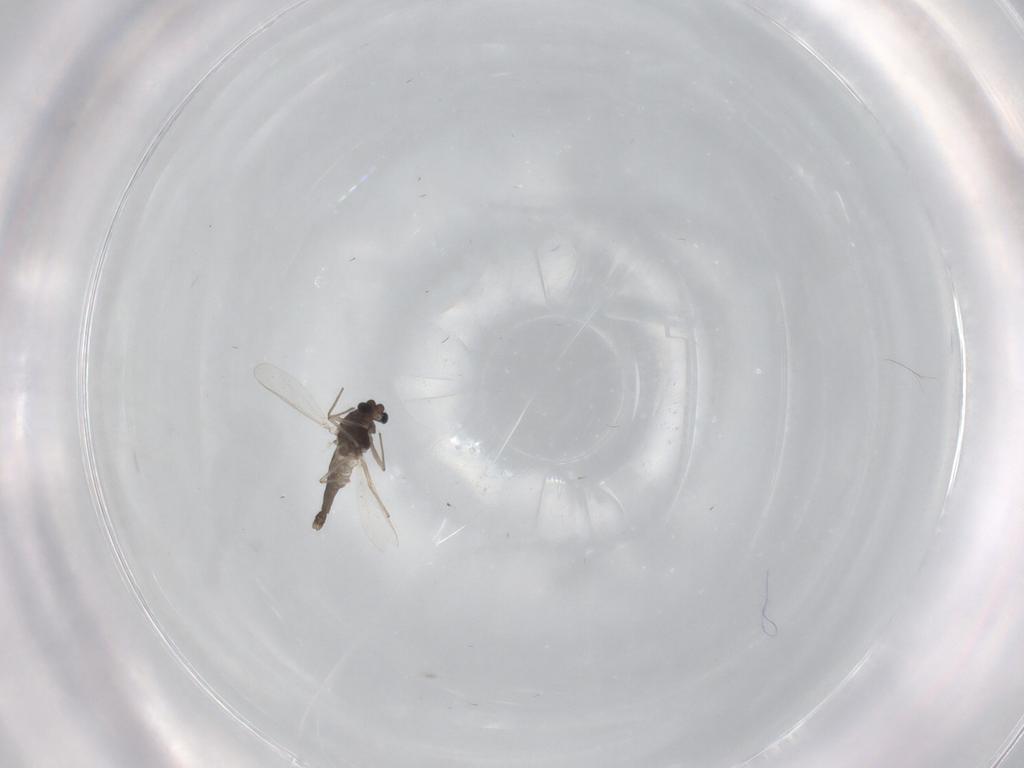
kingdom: Animalia
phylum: Arthropoda
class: Insecta
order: Diptera
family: Chironomidae
